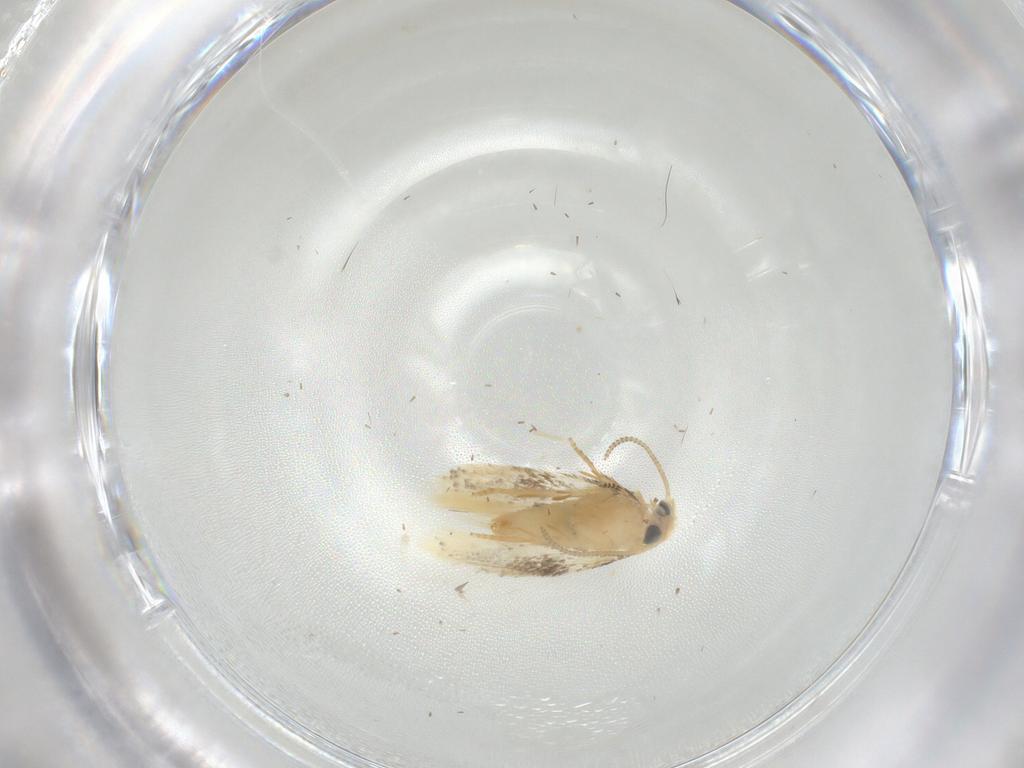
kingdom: Animalia
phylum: Arthropoda
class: Insecta
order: Lepidoptera
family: Nepticulidae
